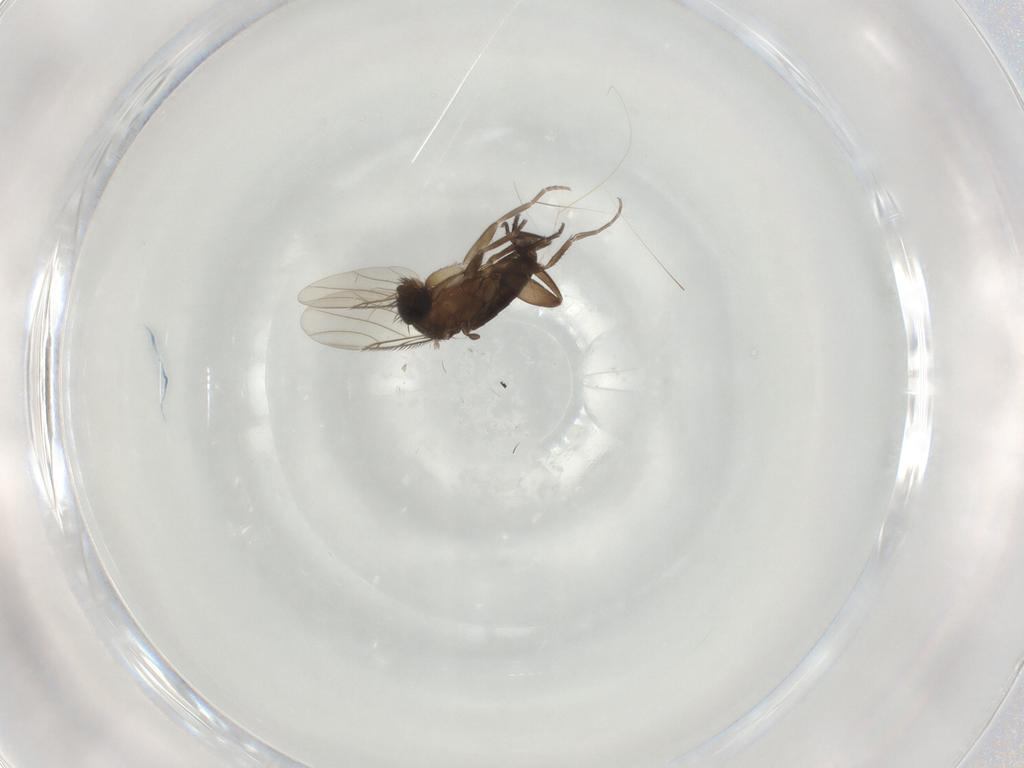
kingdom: Animalia
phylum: Arthropoda
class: Insecta
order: Diptera
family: Phoridae
